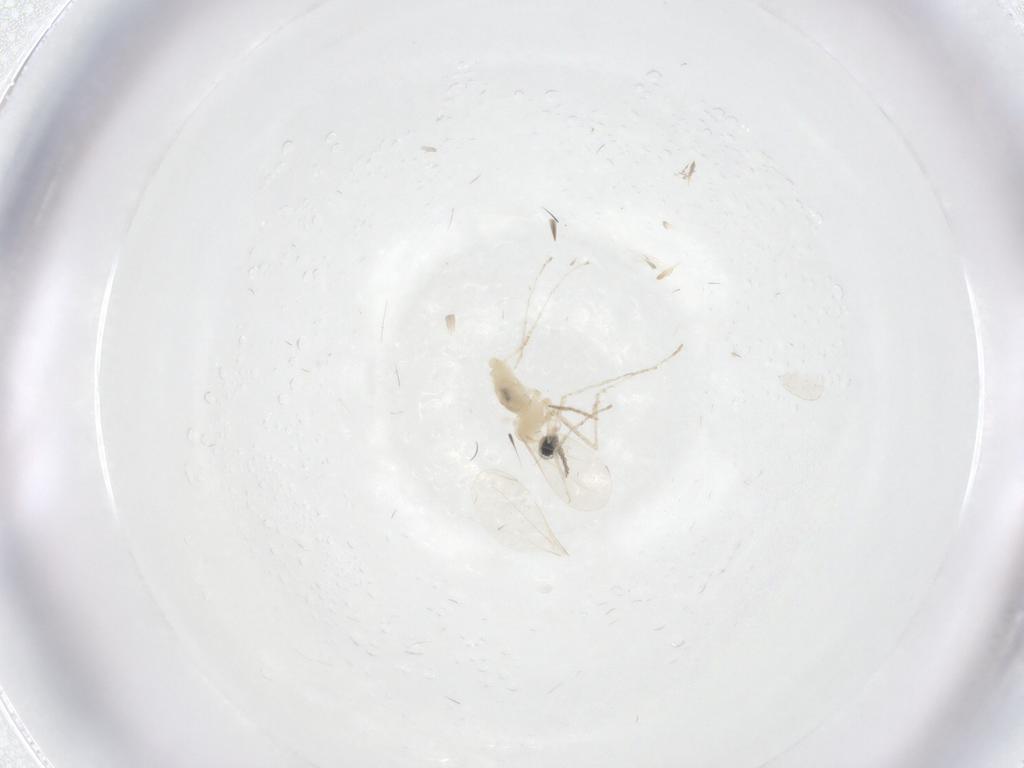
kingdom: Animalia
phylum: Arthropoda
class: Insecta
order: Diptera
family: Cecidomyiidae
